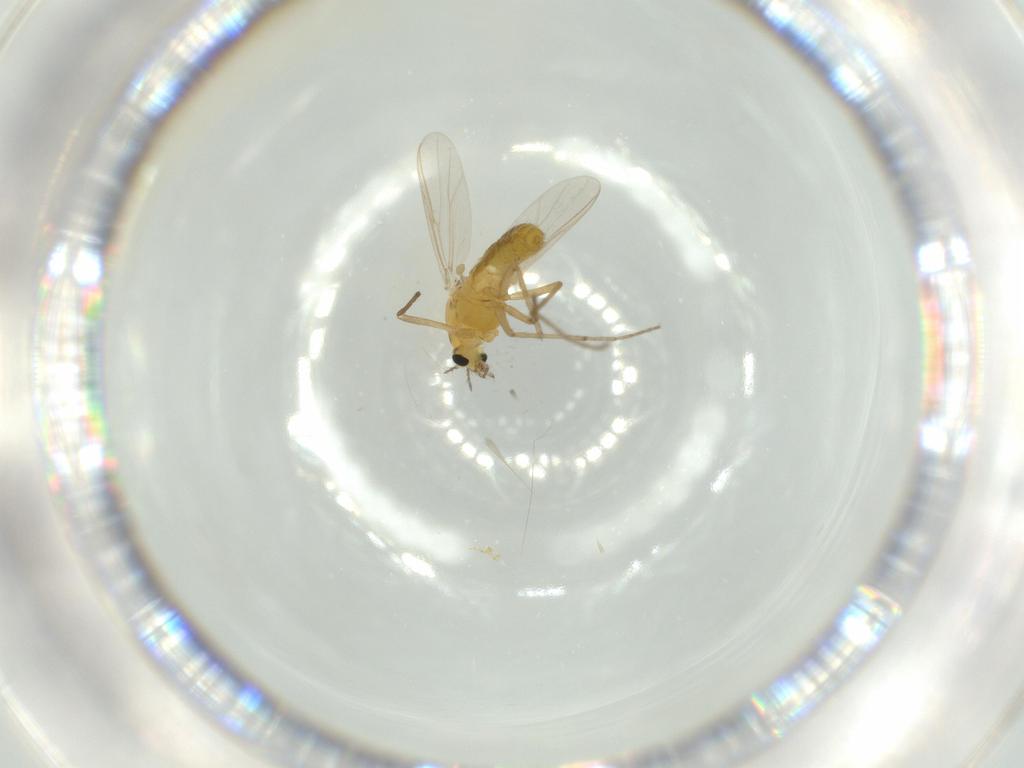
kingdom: Animalia
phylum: Arthropoda
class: Insecta
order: Diptera
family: Chironomidae
